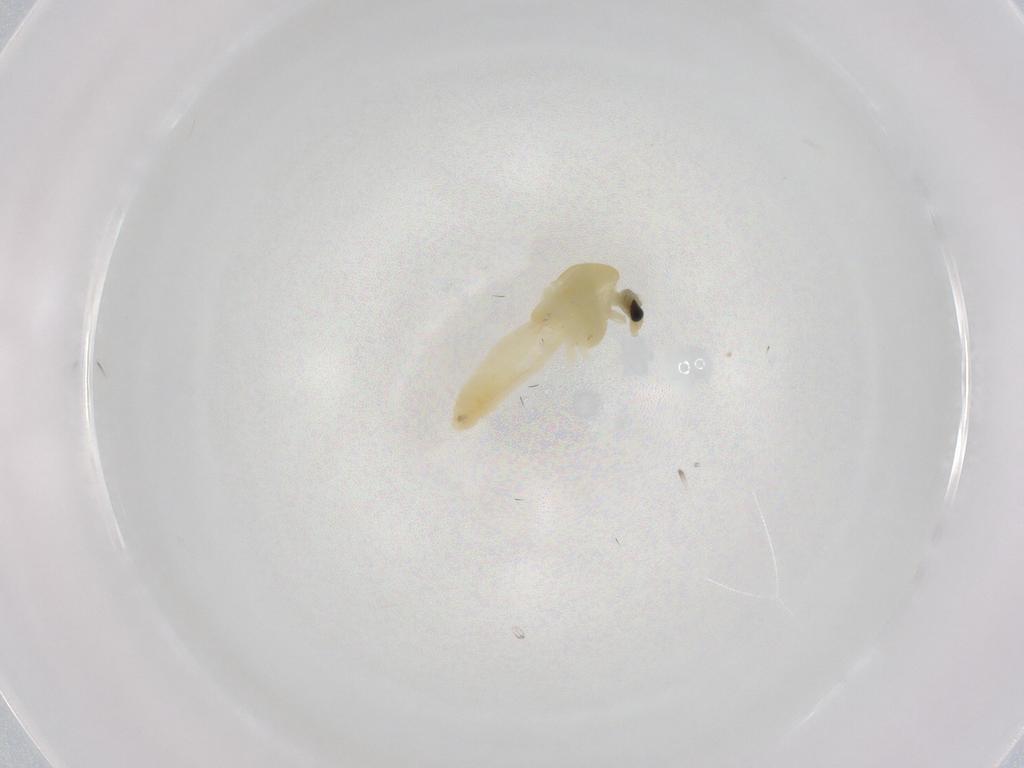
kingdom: Animalia
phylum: Arthropoda
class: Insecta
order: Diptera
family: Chironomidae
